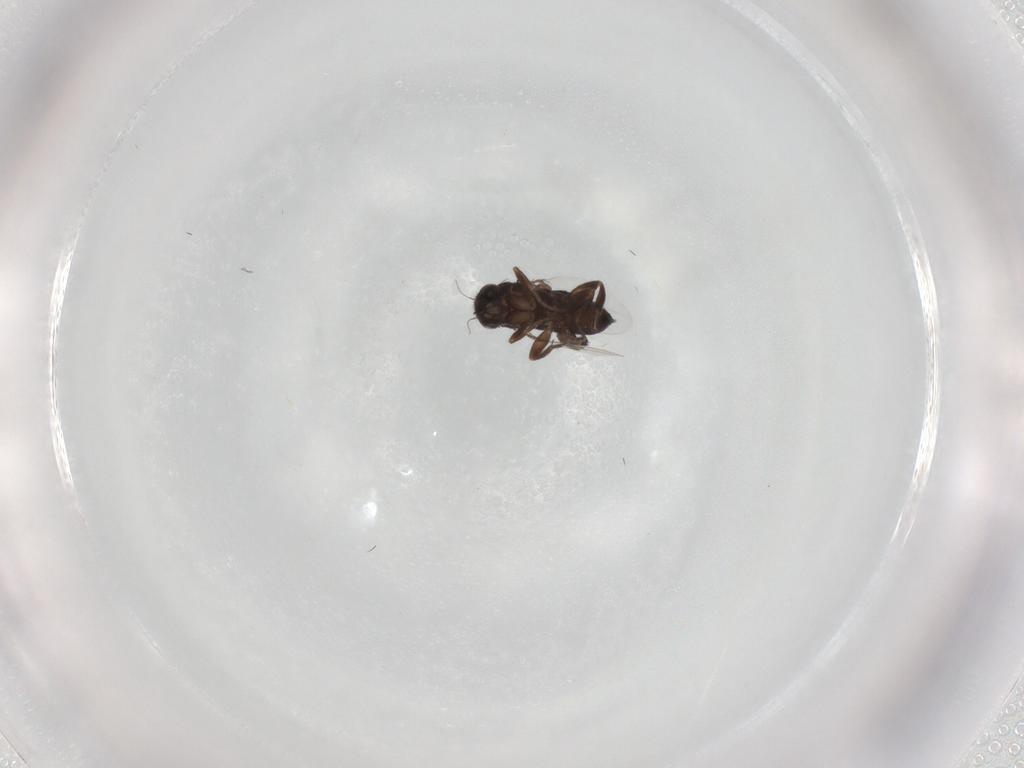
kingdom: Animalia
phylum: Arthropoda
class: Insecta
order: Diptera
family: Phoridae
